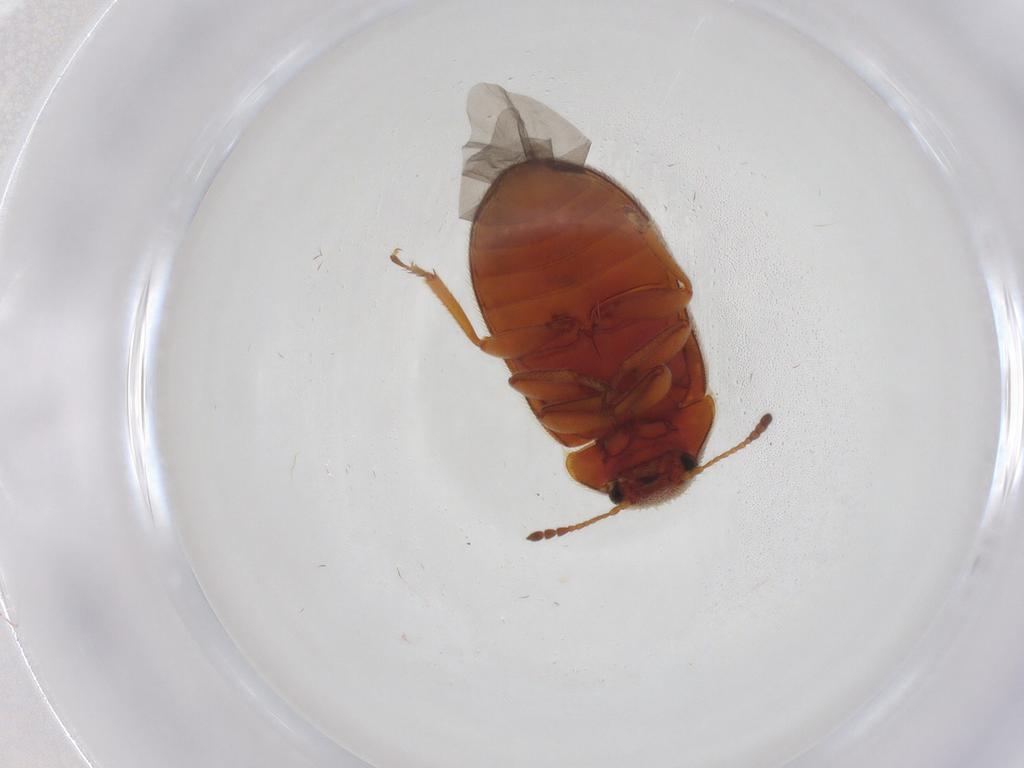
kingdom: Animalia
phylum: Arthropoda
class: Insecta
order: Coleoptera
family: Byturidae
